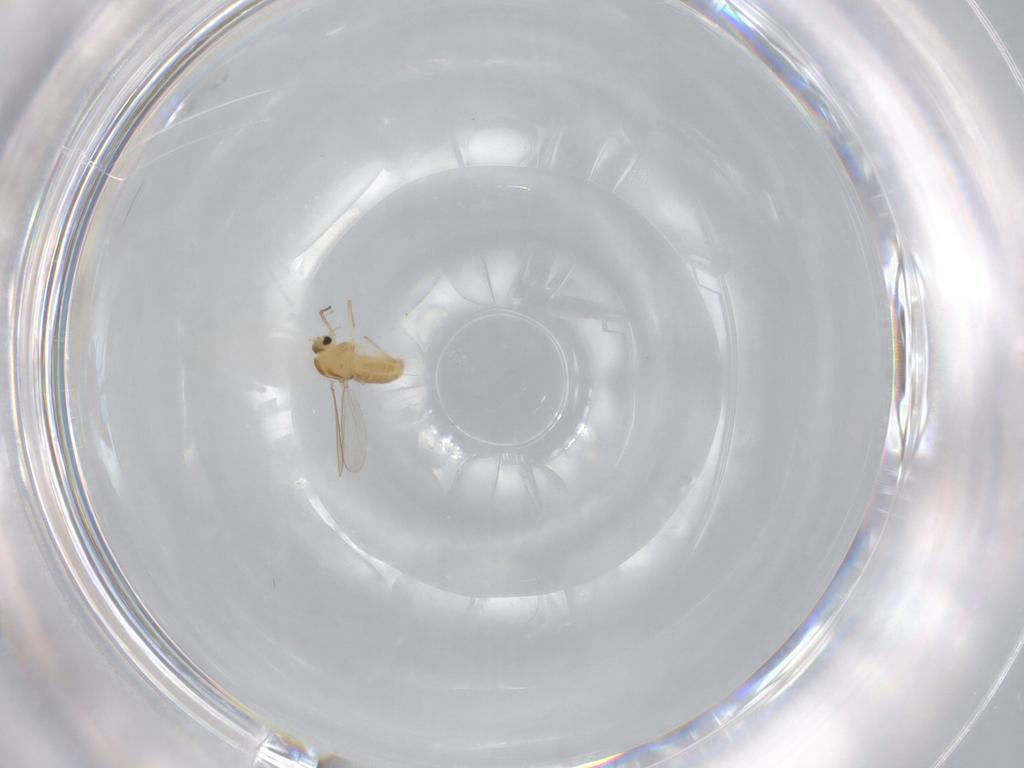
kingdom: Animalia
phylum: Arthropoda
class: Insecta
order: Diptera
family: Chironomidae
